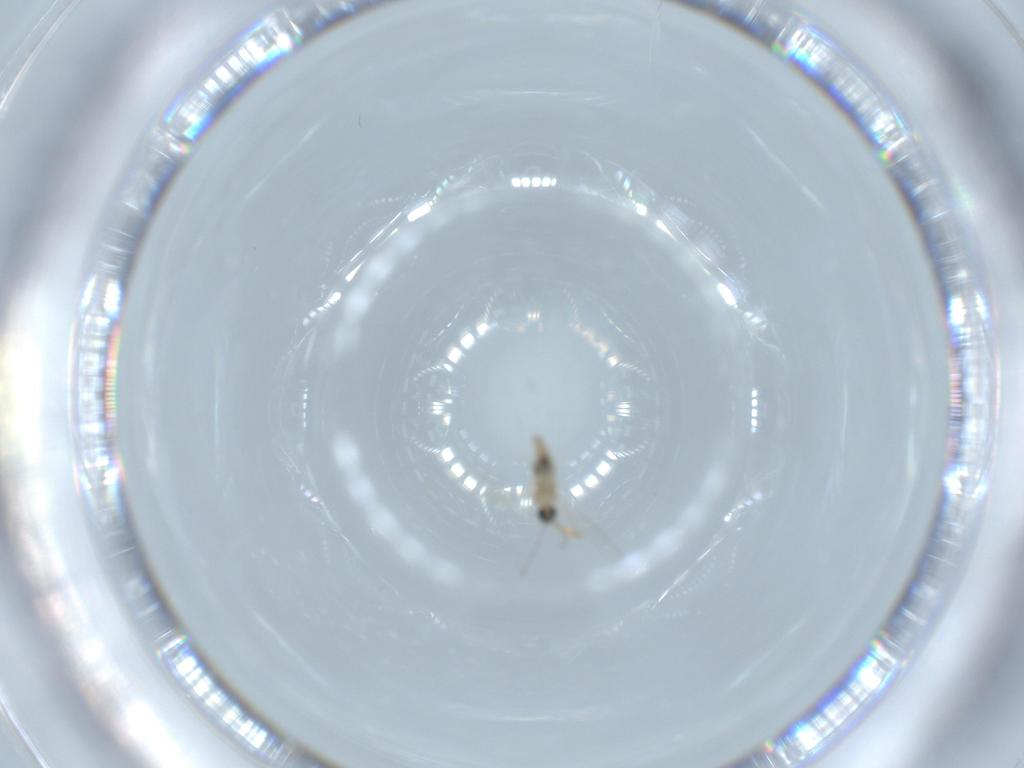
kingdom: Animalia
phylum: Arthropoda
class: Insecta
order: Diptera
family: Cecidomyiidae
